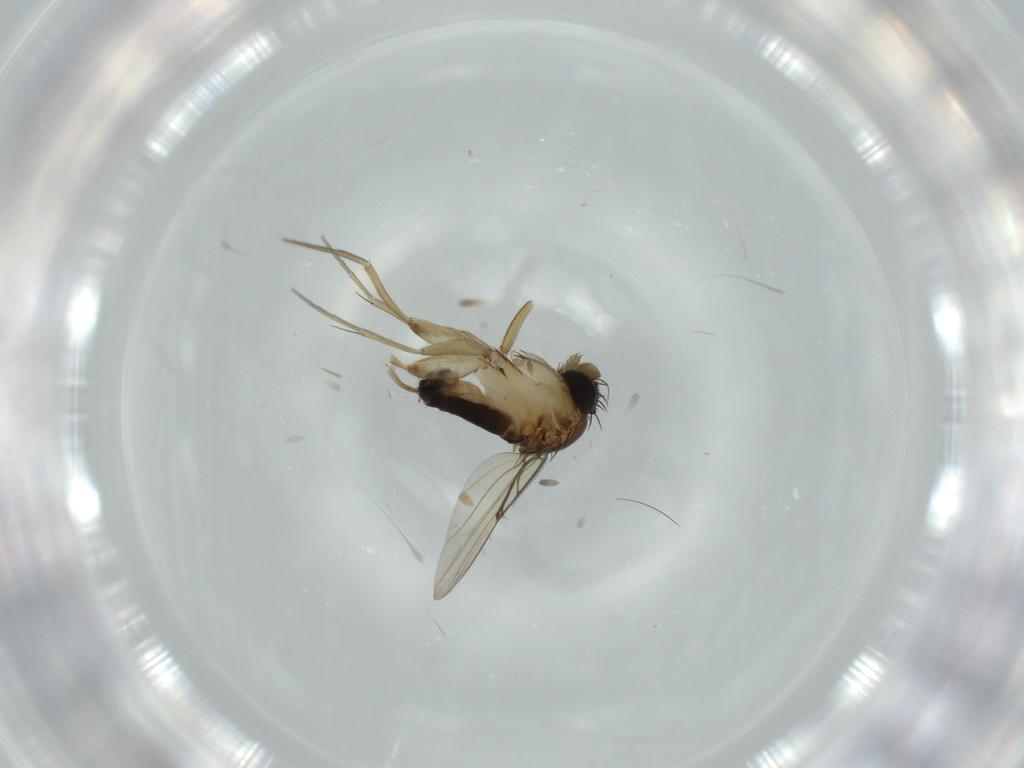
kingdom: Animalia
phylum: Arthropoda
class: Insecta
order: Diptera
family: Phoridae
